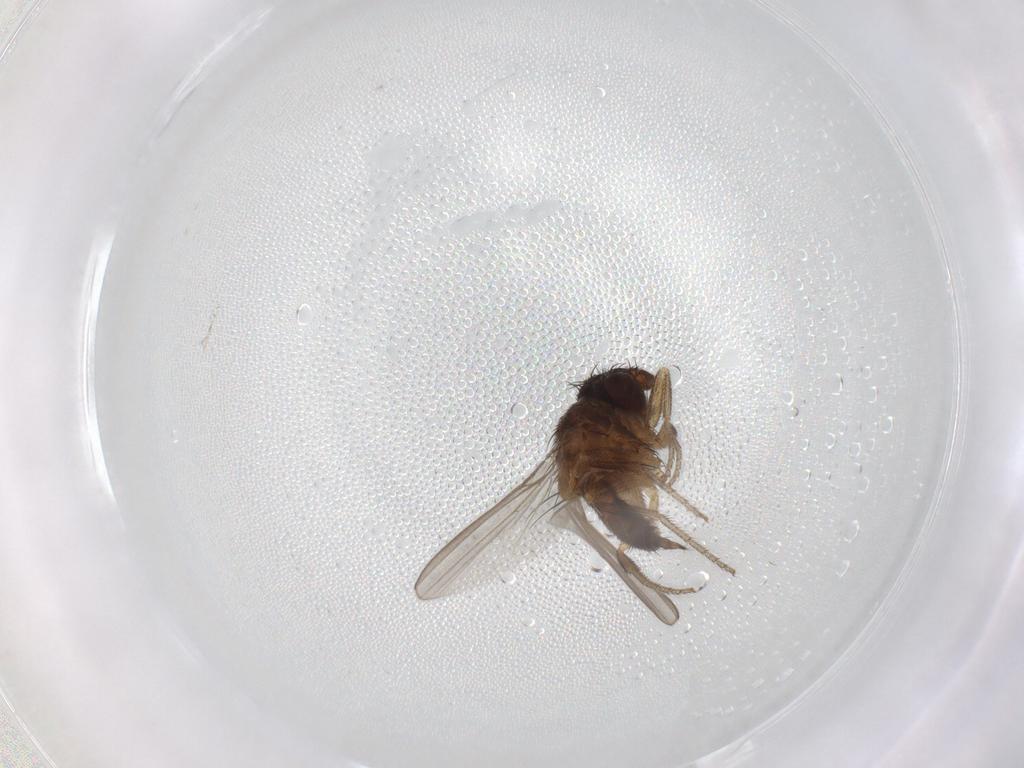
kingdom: Animalia
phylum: Arthropoda
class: Insecta
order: Diptera
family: Milichiidae
